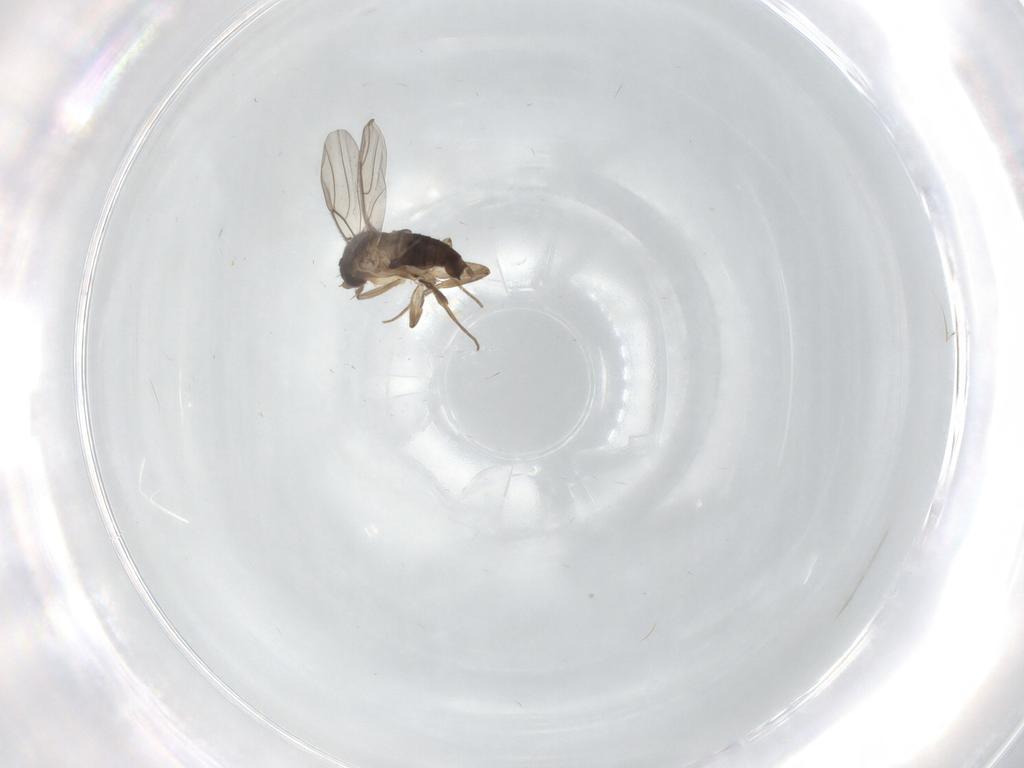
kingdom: Animalia
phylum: Arthropoda
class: Insecta
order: Diptera
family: Phoridae
